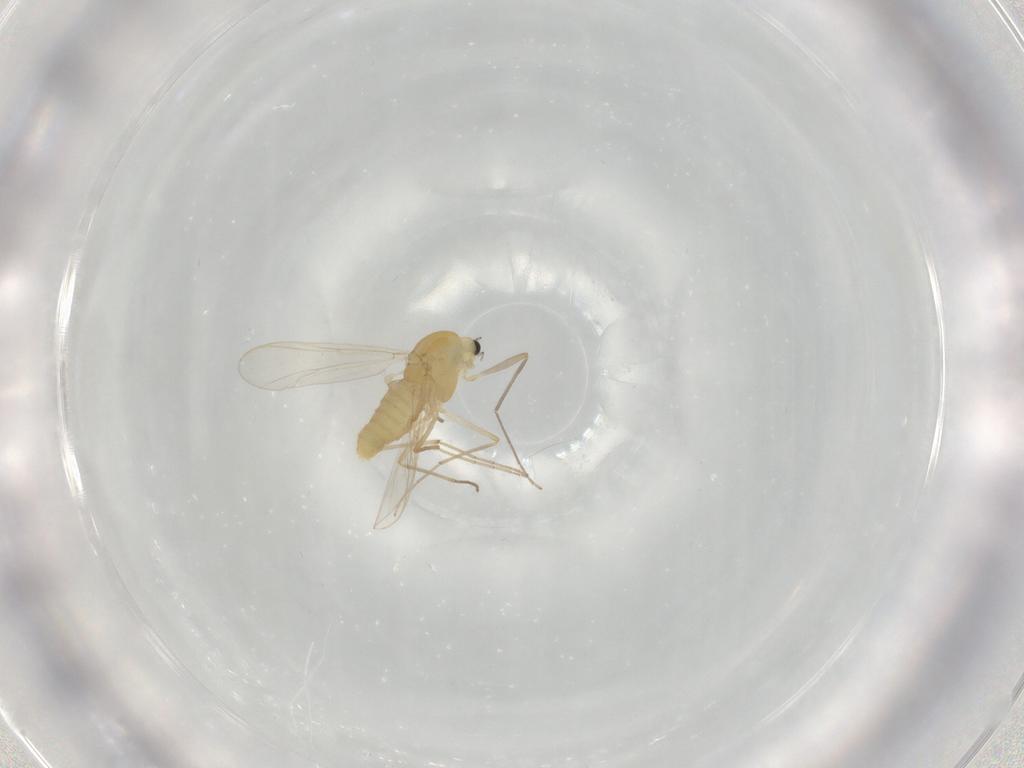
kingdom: Animalia
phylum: Arthropoda
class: Insecta
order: Diptera
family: Chironomidae
